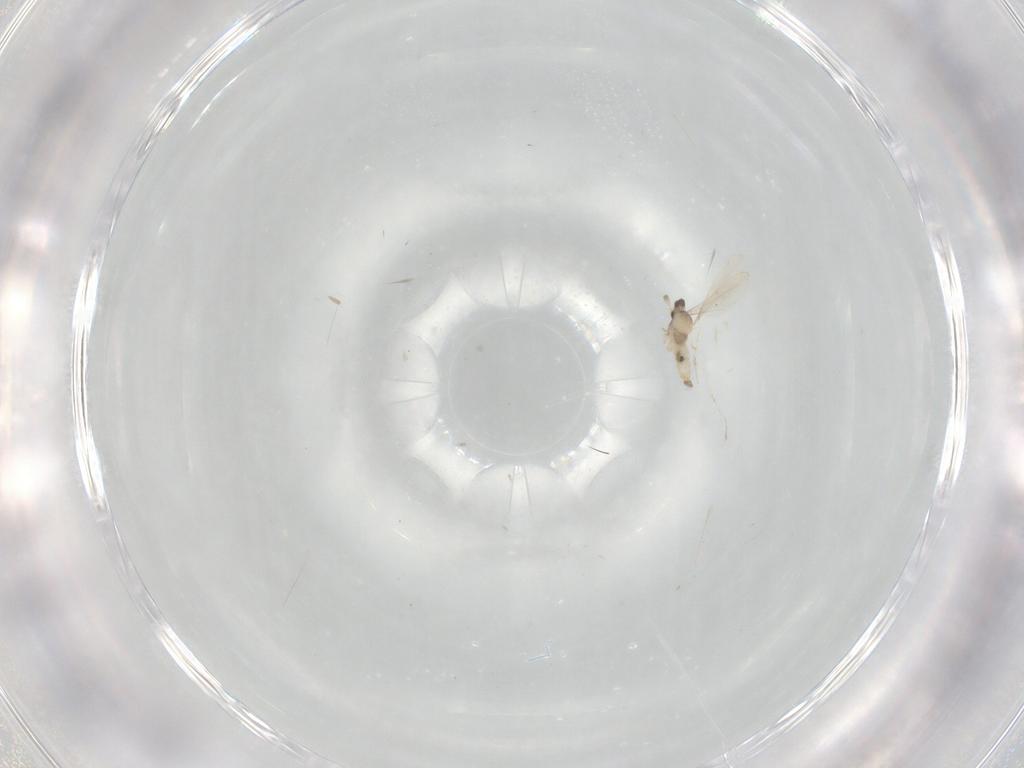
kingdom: Animalia
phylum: Arthropoda
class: Insecta
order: Diptera
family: Cecidomyiidae
